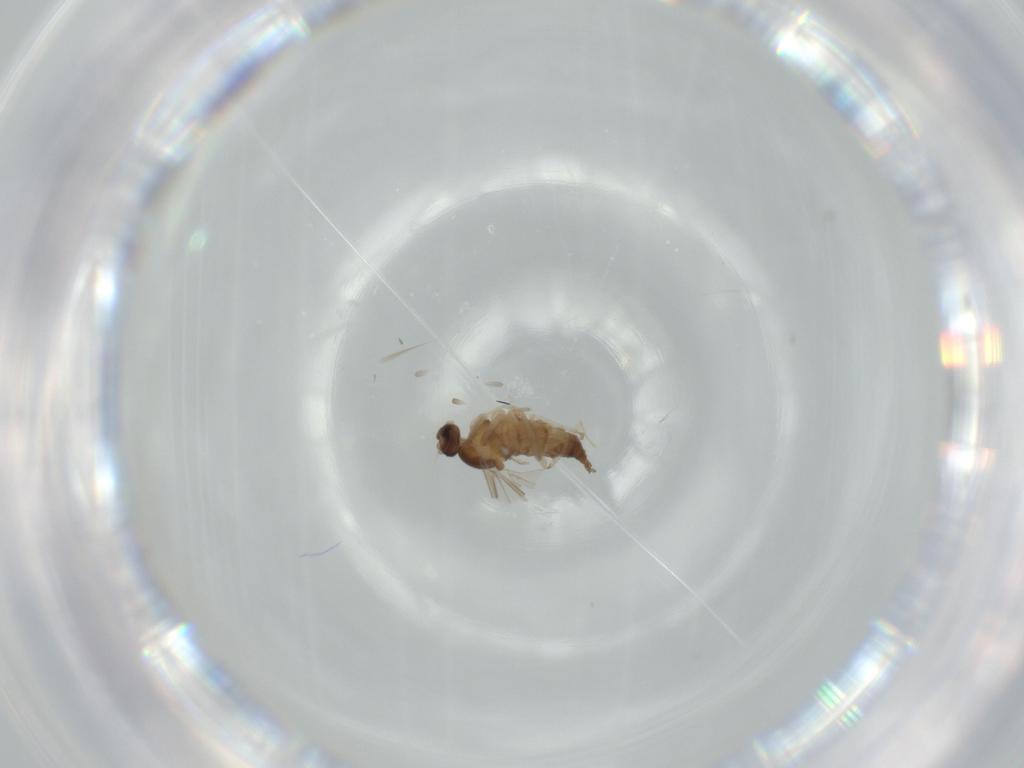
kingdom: Animalia
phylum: Arthropoda
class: Insecta
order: Diptera
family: Cecidomyiidae
